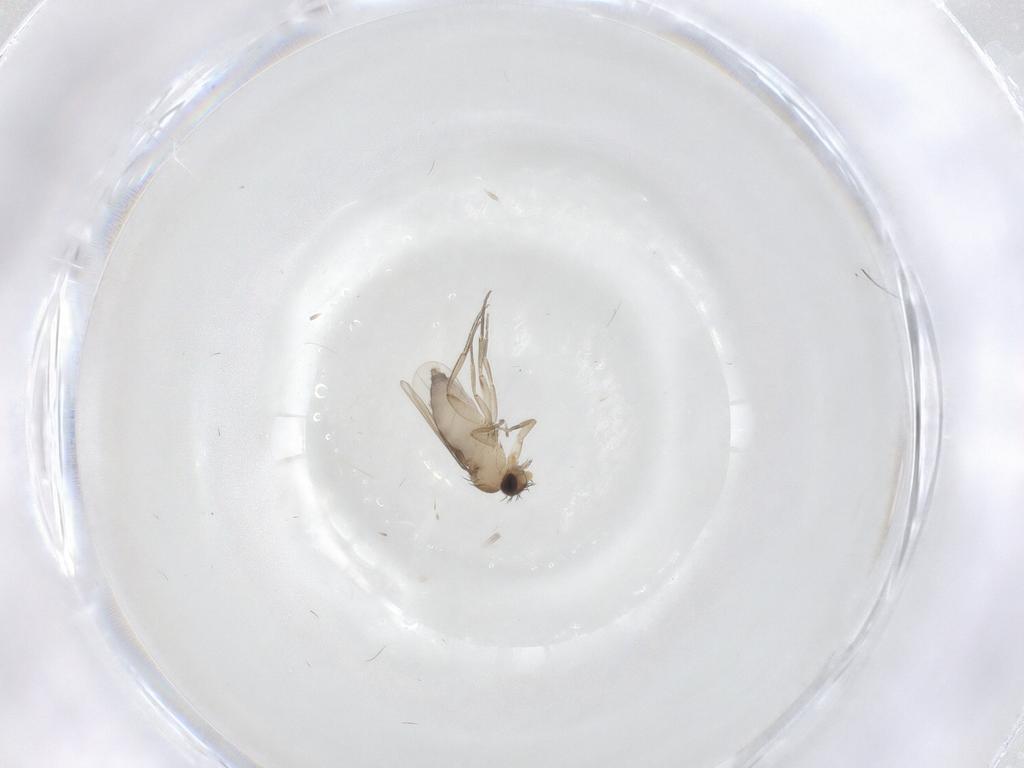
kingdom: Animalia
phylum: Arthropoda
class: Insecta
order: Diptera
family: Phoridae
